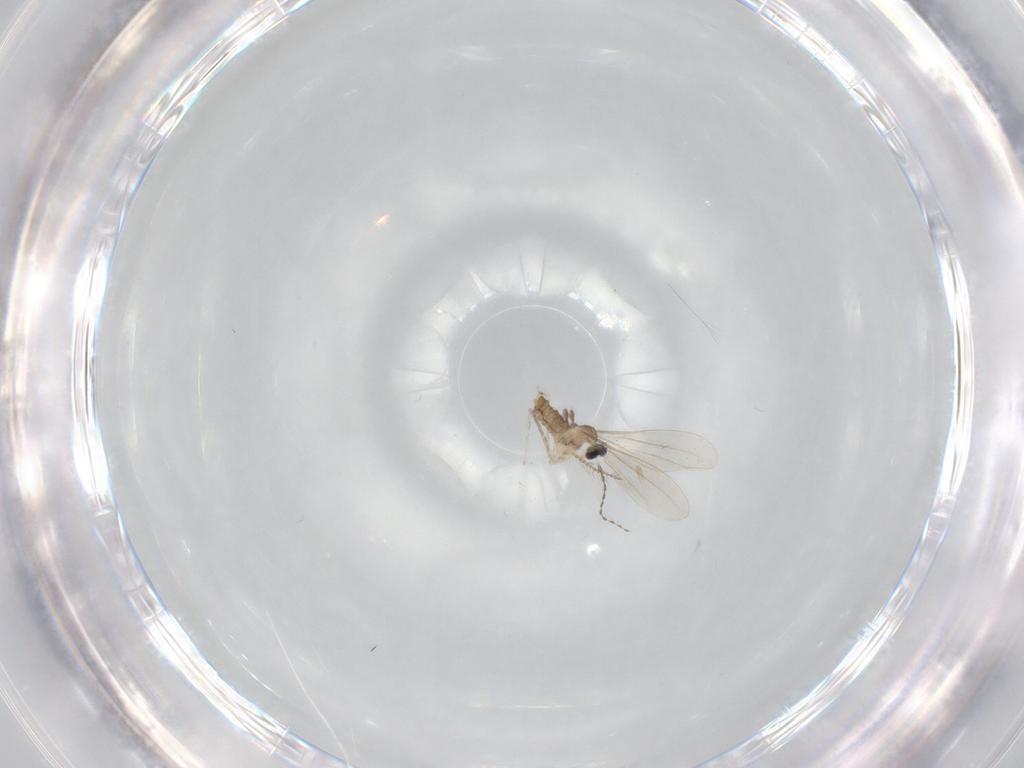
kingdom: Animalia
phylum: Arthropoda
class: Insecta
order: Diptera
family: Cecidomyiidae
